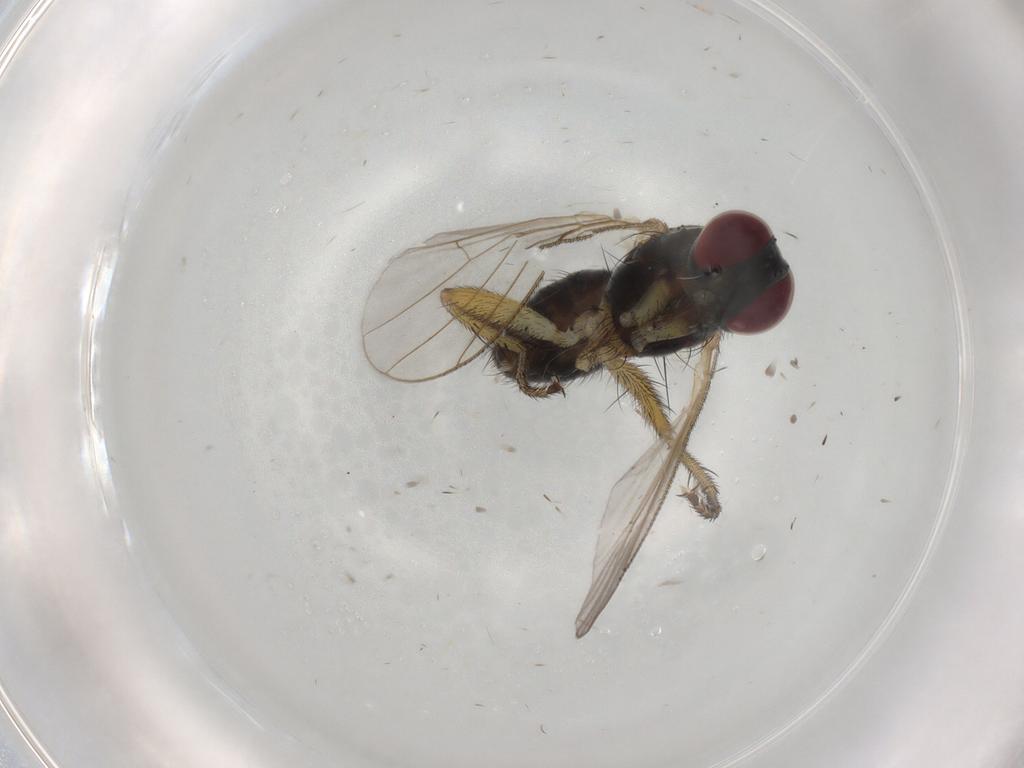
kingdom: Animalia
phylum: Arthropoda
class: Insecta
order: Diptera
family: Muscidae
